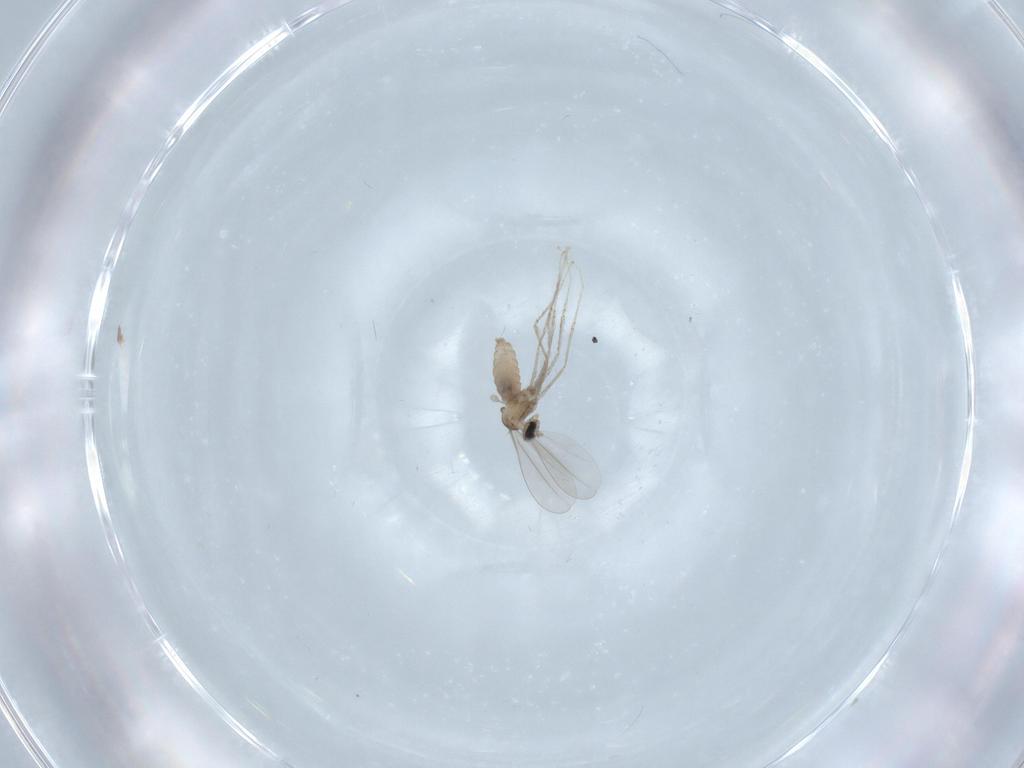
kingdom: Animalia
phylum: Arthropoda
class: Insecta
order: Diptera
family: Cecidomyiidae
